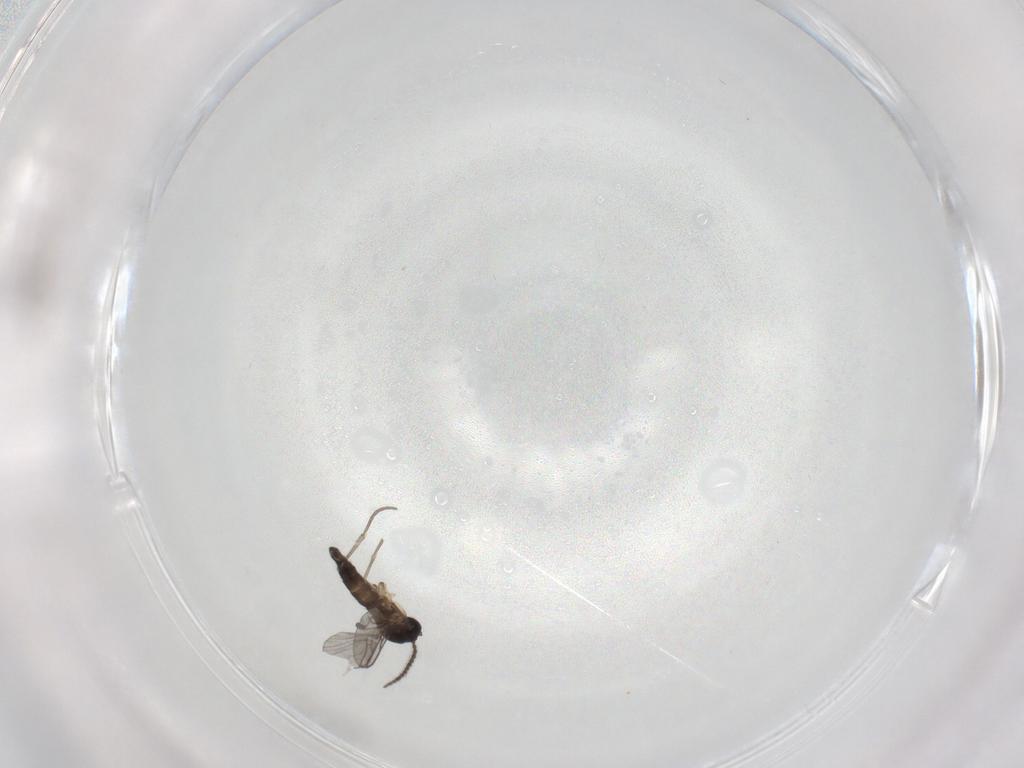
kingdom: Animalia
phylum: Arthropoda
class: Insecta
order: Diptera
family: Sciaridae
